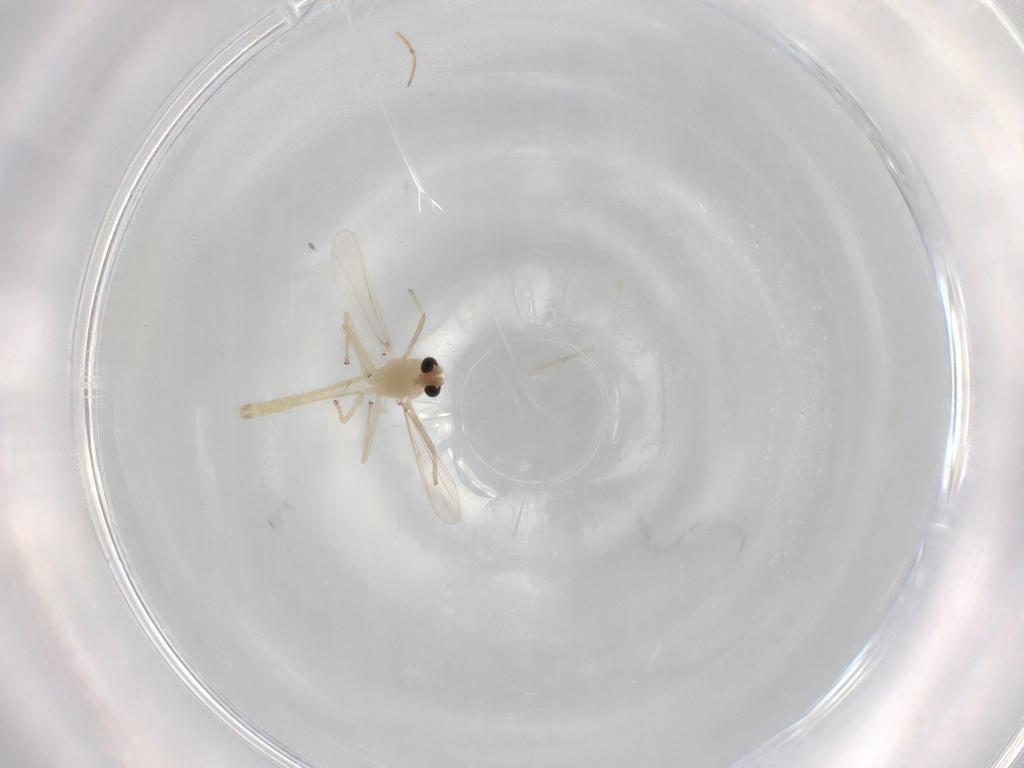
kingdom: Animalia
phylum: Arthropoda
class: Insecta
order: Diptera
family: Chironomidae
